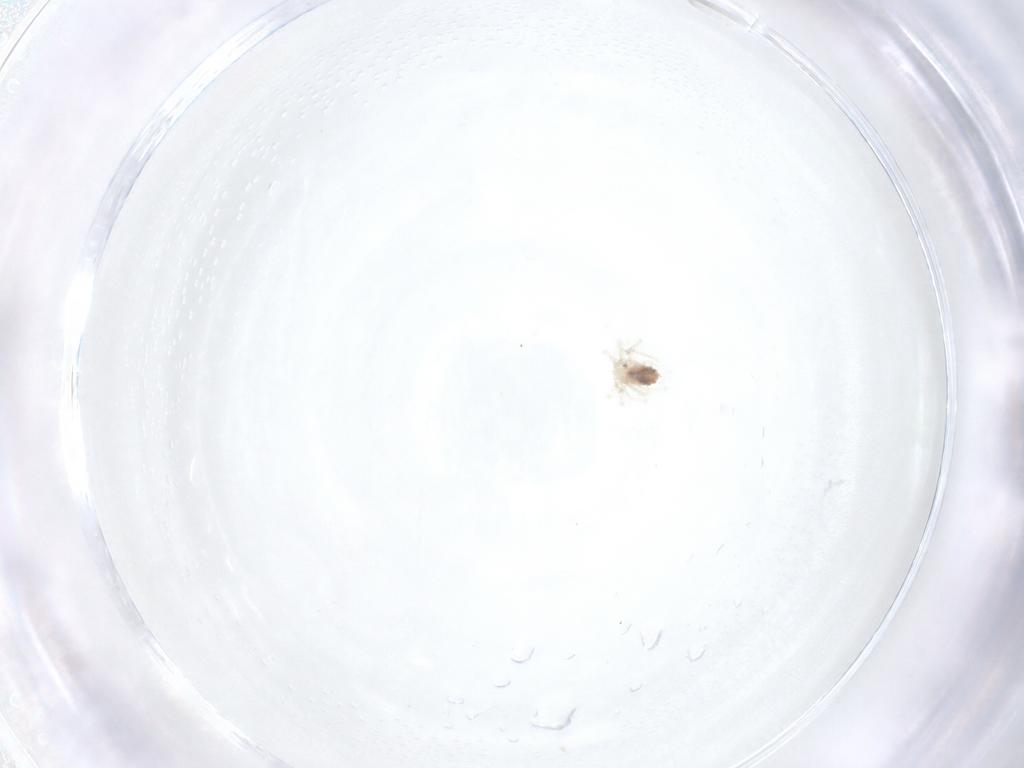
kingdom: Animalia
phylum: Arthropoda
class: Arachnida
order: Trombidiformes
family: Anystidae
